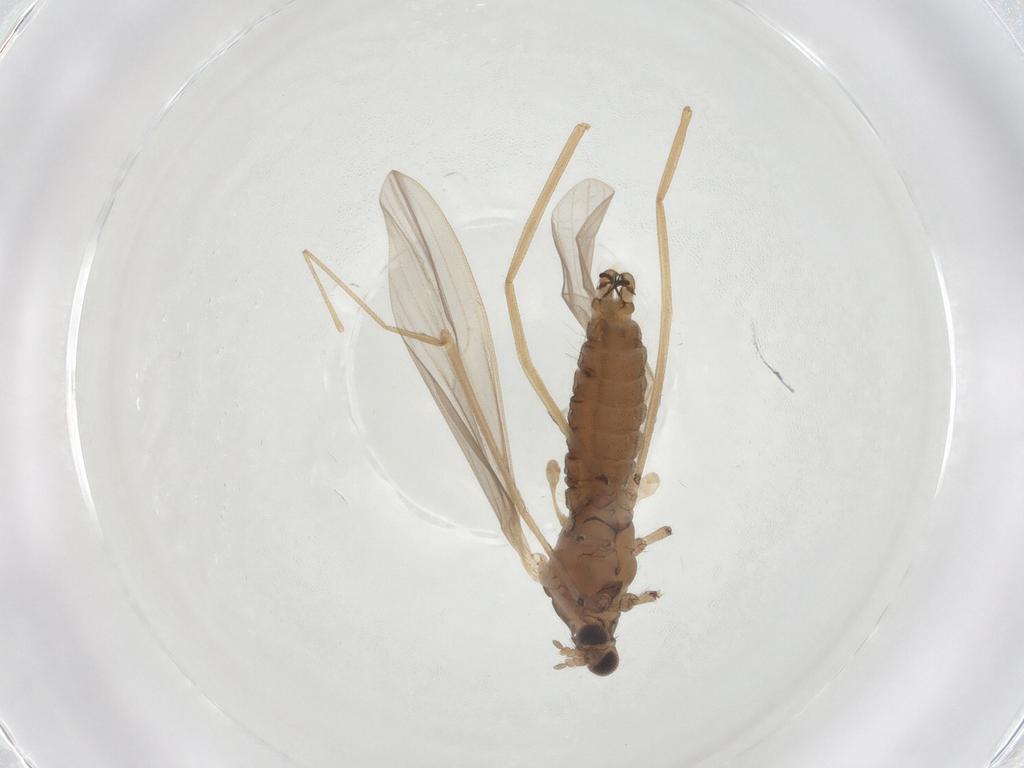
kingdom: Animalia
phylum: Arthropoda
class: Insecta
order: Diptera
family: Limoniidae
